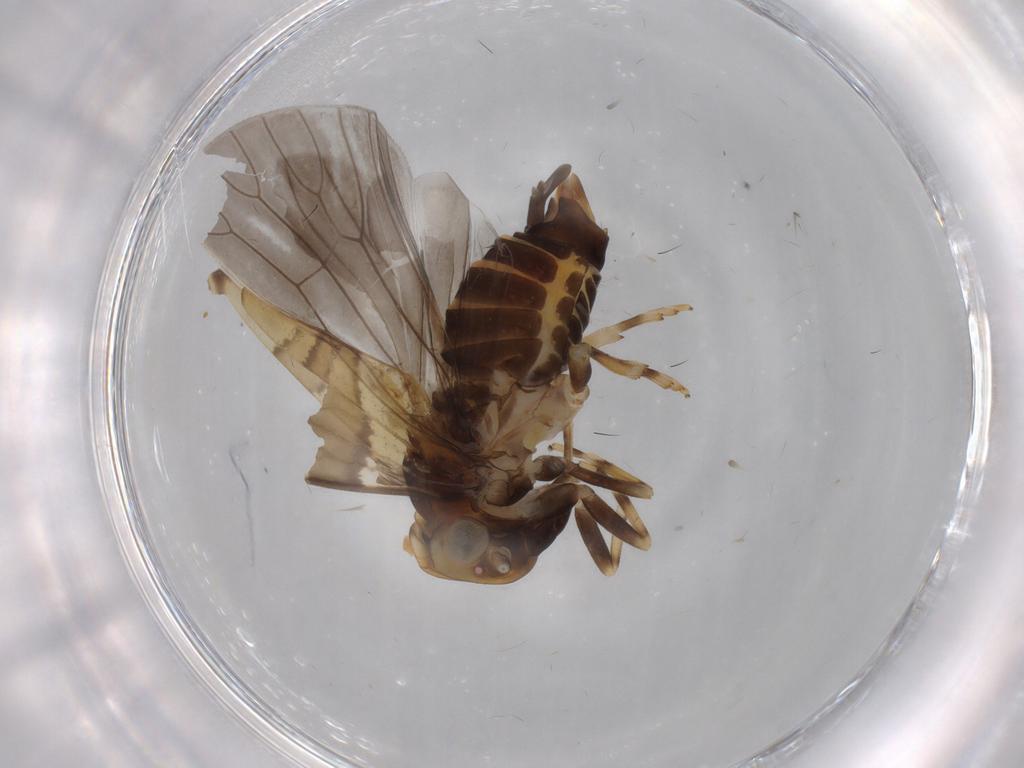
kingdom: Animalia
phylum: Arthropoda
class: Insecta
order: Hemiptera
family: Cixiidae
